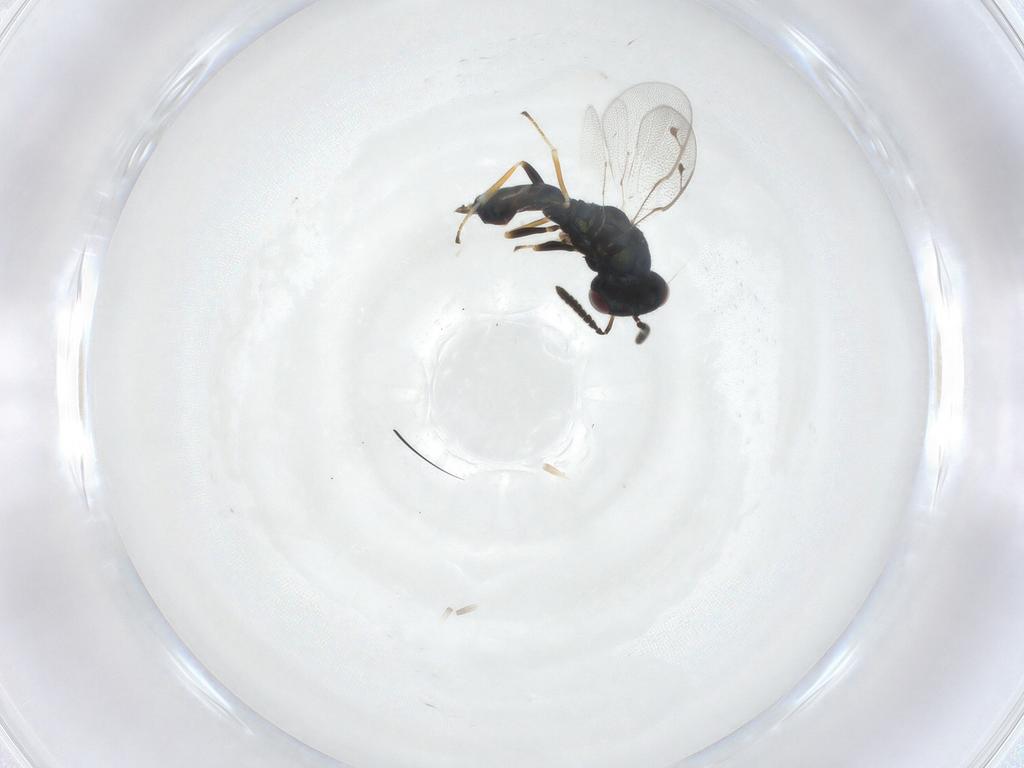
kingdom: Animalia
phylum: Arthropoda
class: Insecta
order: Hymenoptera
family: Pteromalidae
